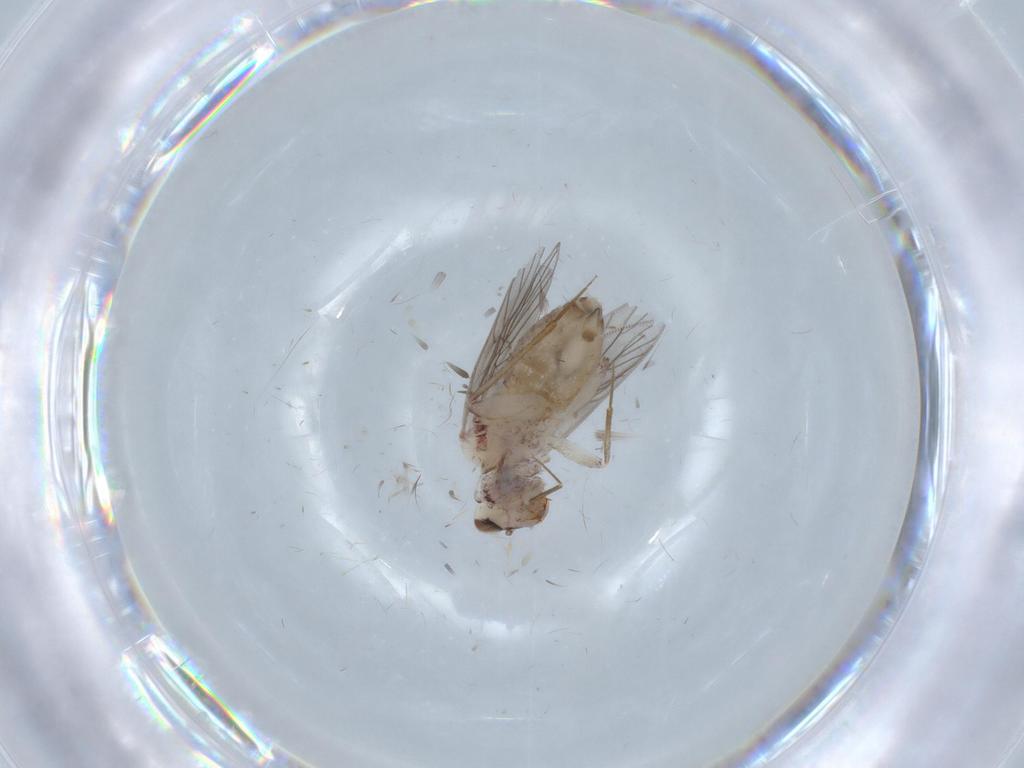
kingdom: Animalia
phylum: Arthropoda
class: Insecta
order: Psocodea
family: Lepidopsocidae
